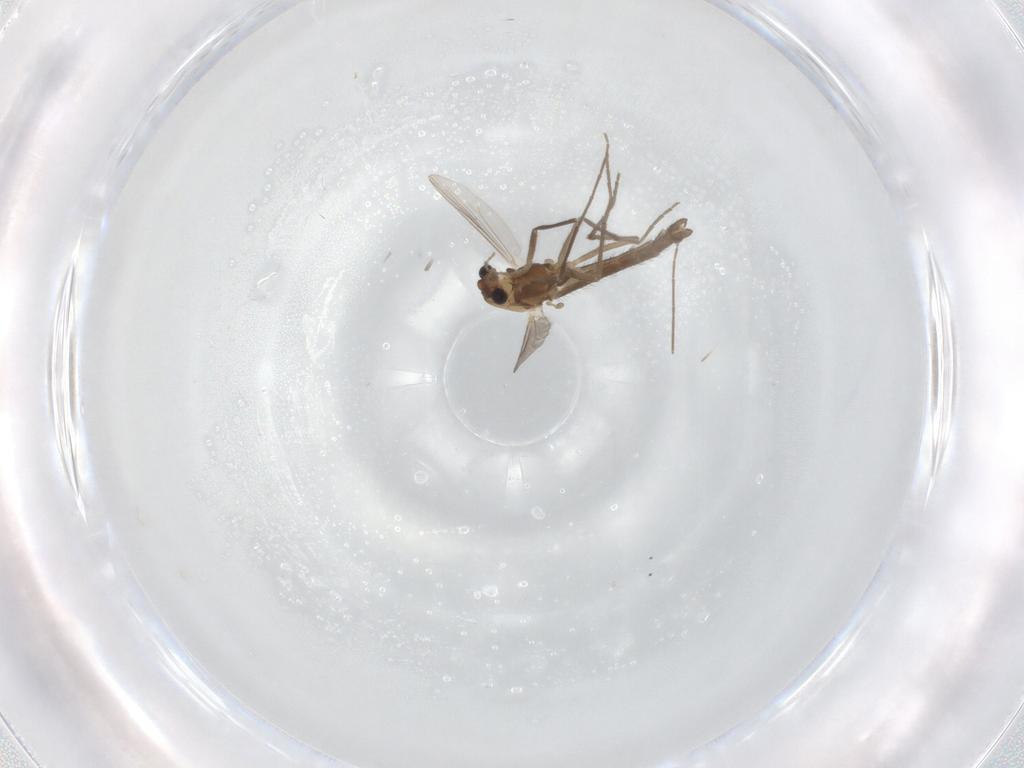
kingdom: Animalia
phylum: Arthropoda
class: Insecta
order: Diptera
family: Chironomidae
